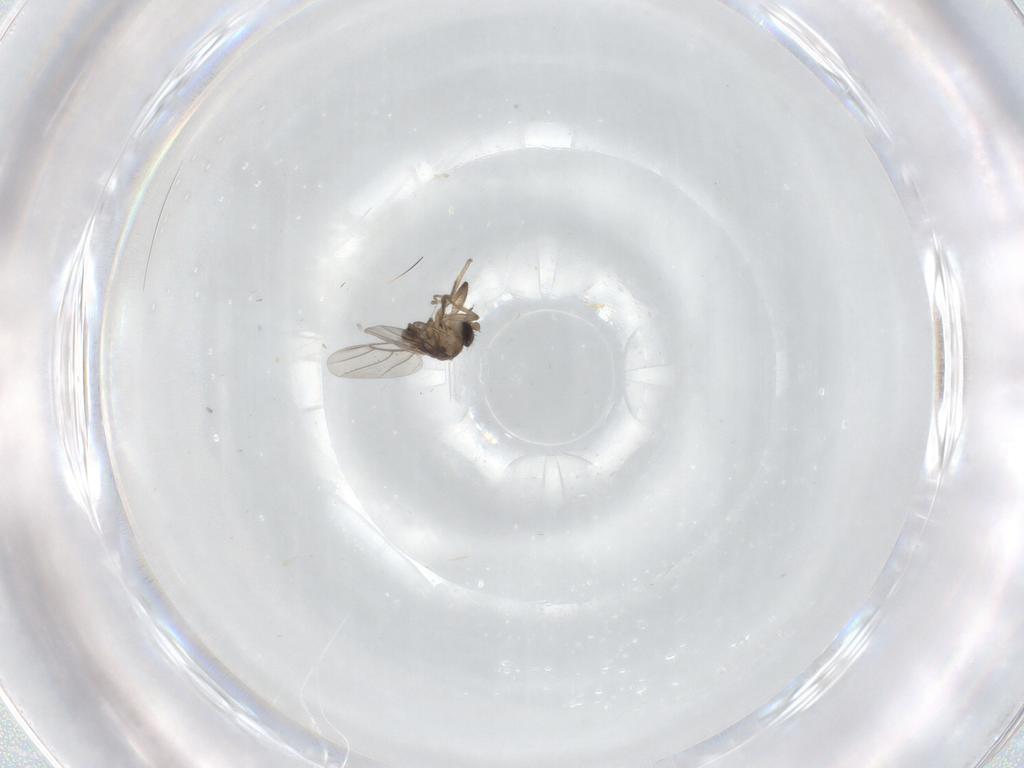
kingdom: Animalia
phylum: Arthropoda
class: Insecta
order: Diptera
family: Phoridae
